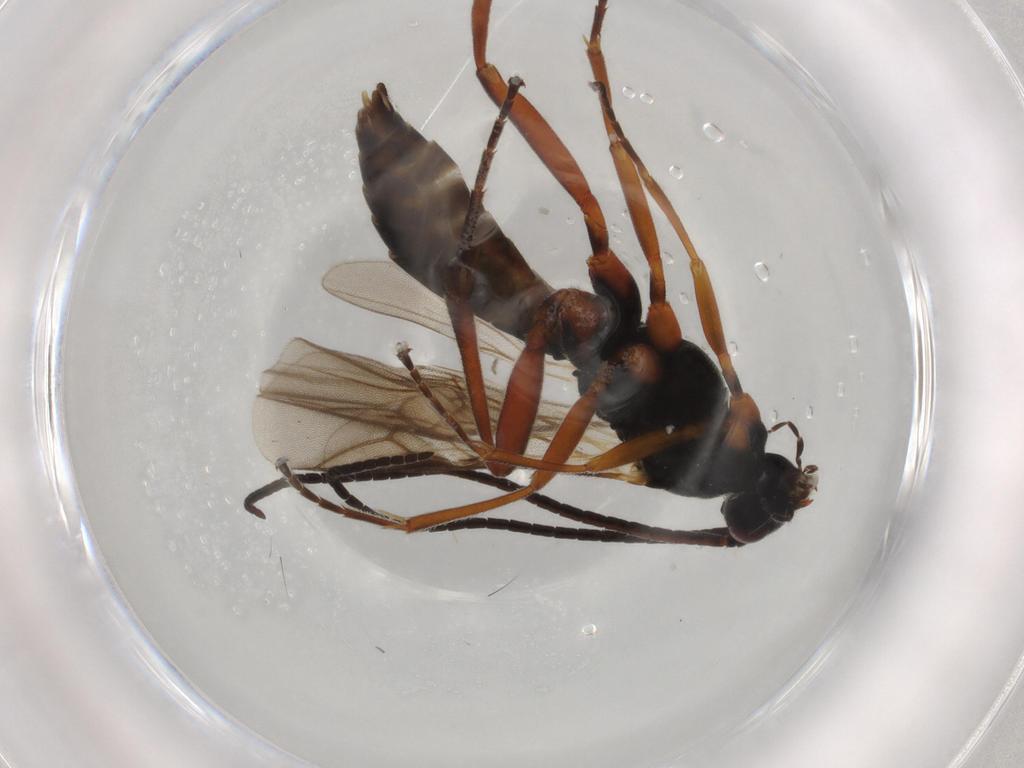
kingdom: Animalia
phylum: Arthropoda
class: Insecta
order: Hymenoptera
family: Braconidae
